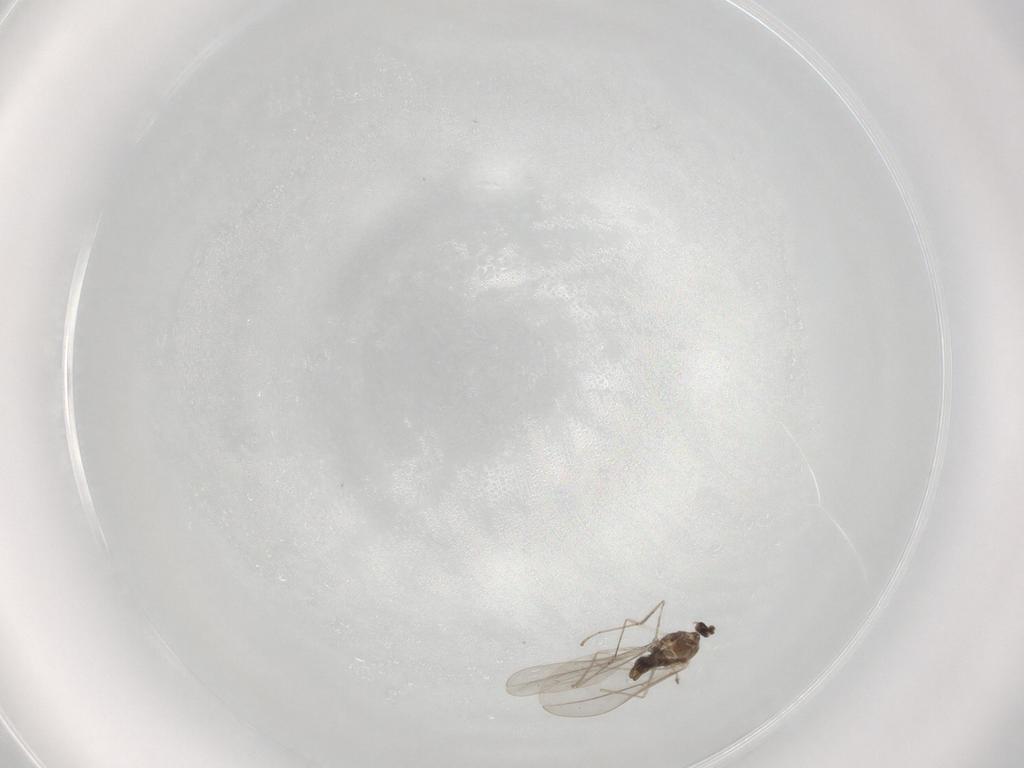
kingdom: Animalia
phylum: Arthropoda
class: Insecta
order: Diptera
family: Cecidomyiidae
